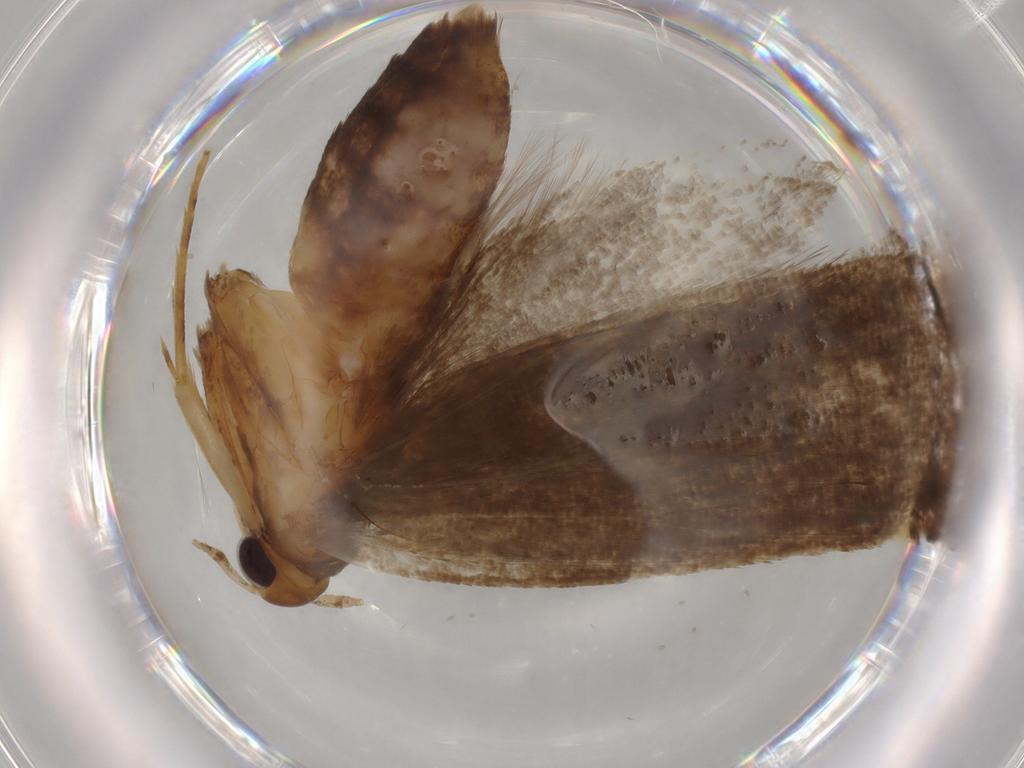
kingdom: Animalia
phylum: Arthropoda
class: Insecta
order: Lepidoptera
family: Lecithoceridae
